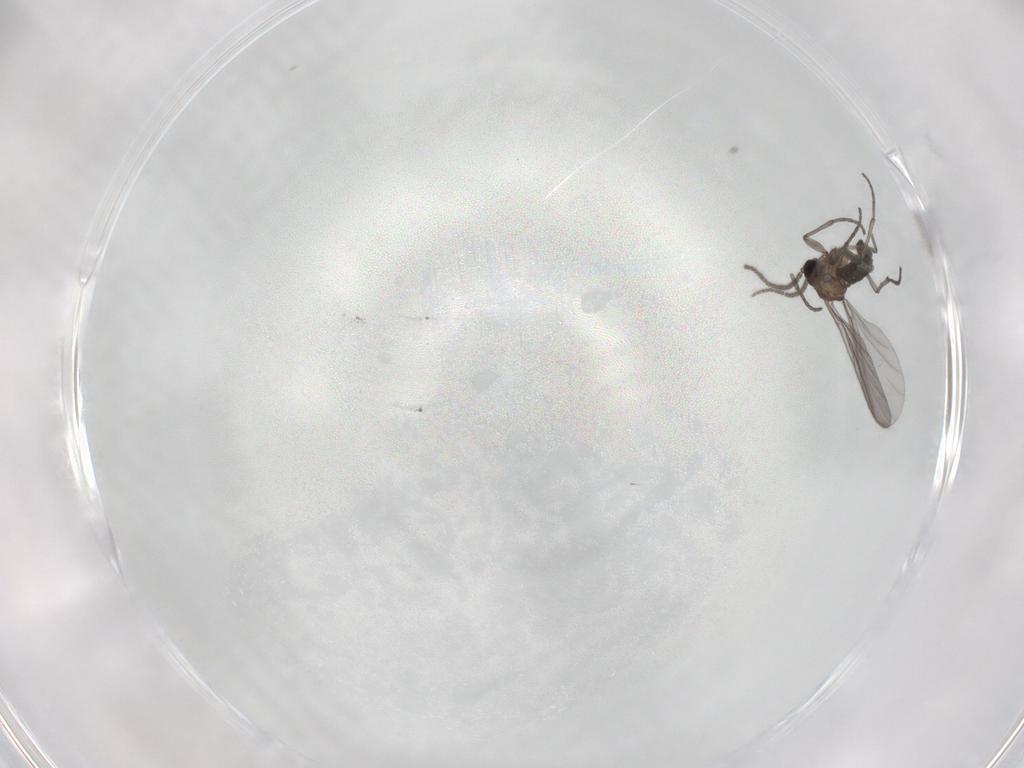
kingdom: Animalia
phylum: Arthropoda
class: Insecta
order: Diptera
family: Sciaridae
